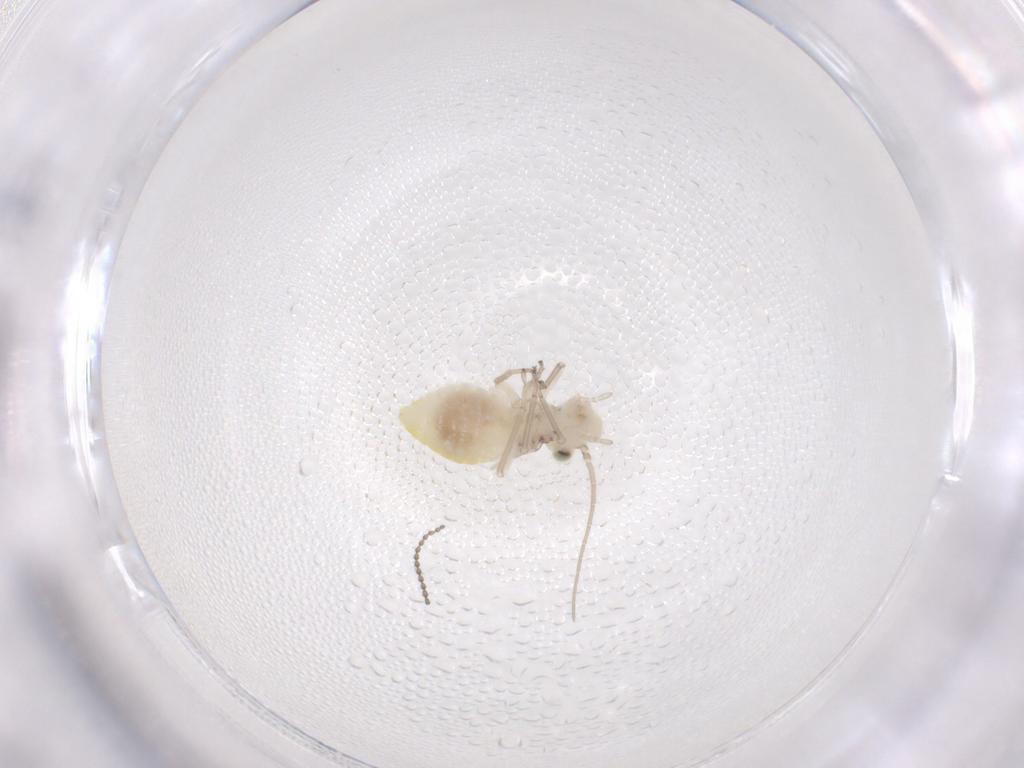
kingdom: Animalia
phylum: Arthropoda
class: Insecta
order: Psocodea
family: Caeciliusidae
